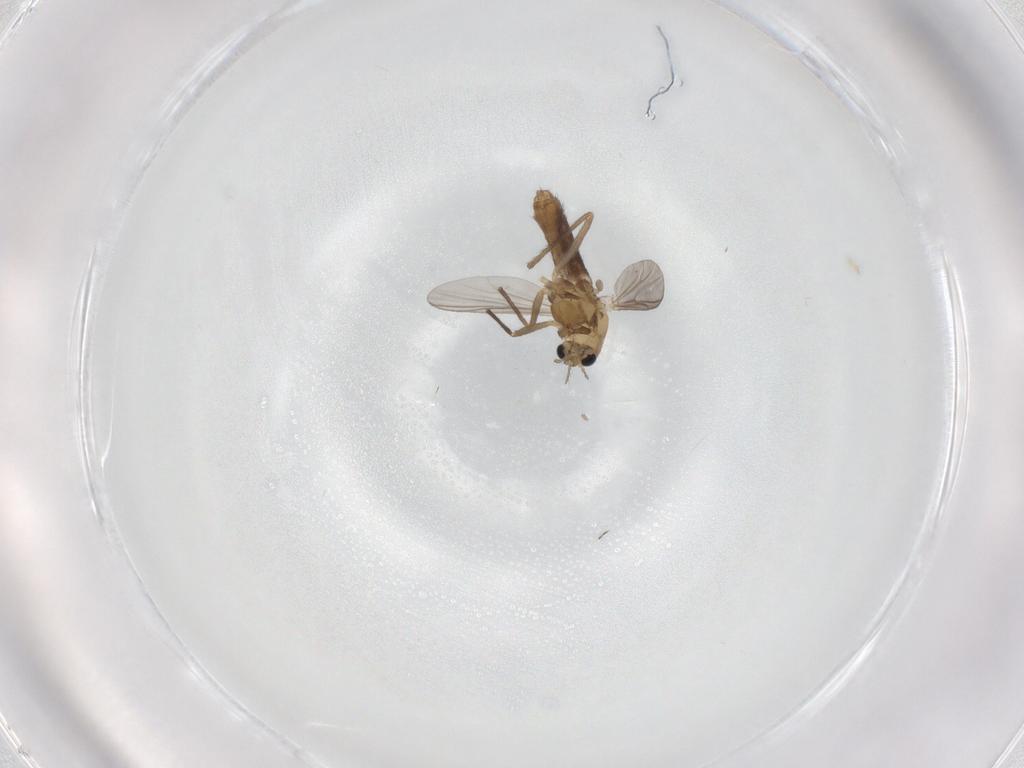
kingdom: Animalia
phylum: Arthropoda
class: Insecta
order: Diptera
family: Chironomidae
